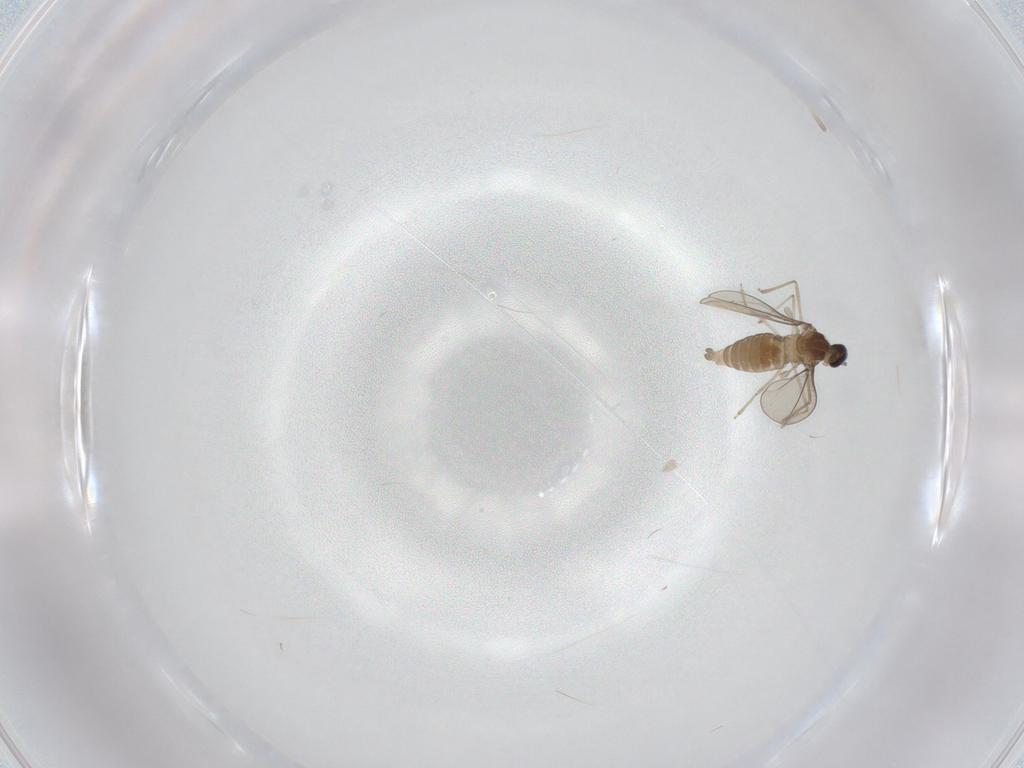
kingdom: Animalia
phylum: Arthropoda
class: Insecta
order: Diptera
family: Cecidomyiidae
